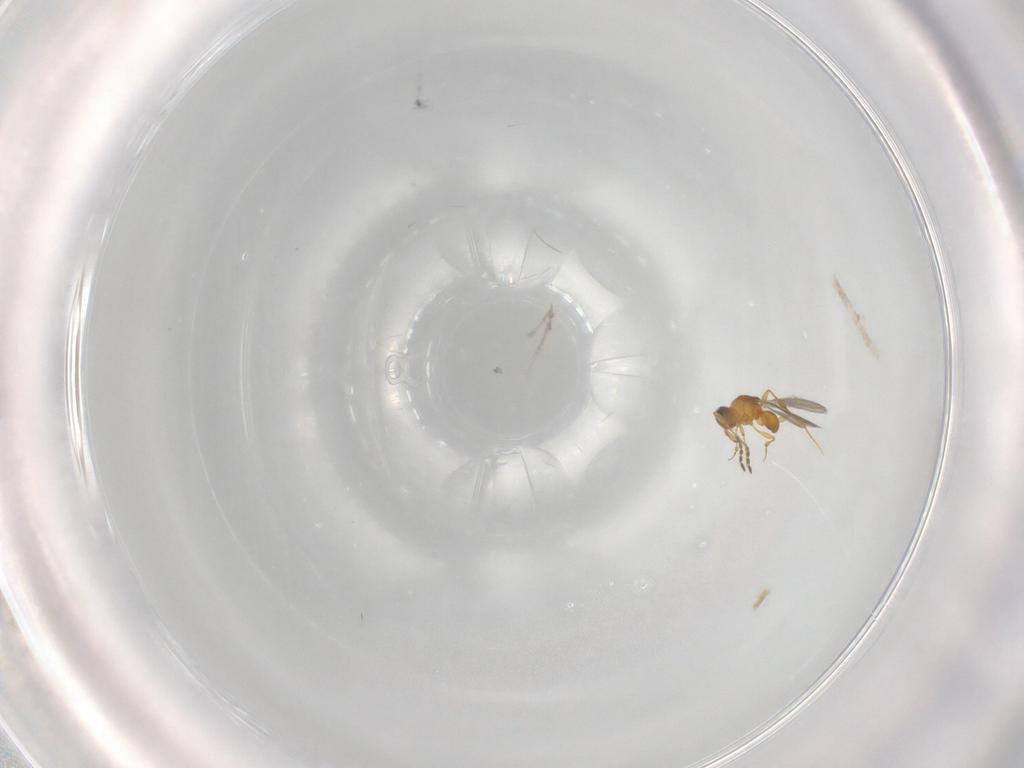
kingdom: Animalia
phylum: Arthropoda
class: Insecta
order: Hymenoptera
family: Platygastridae
